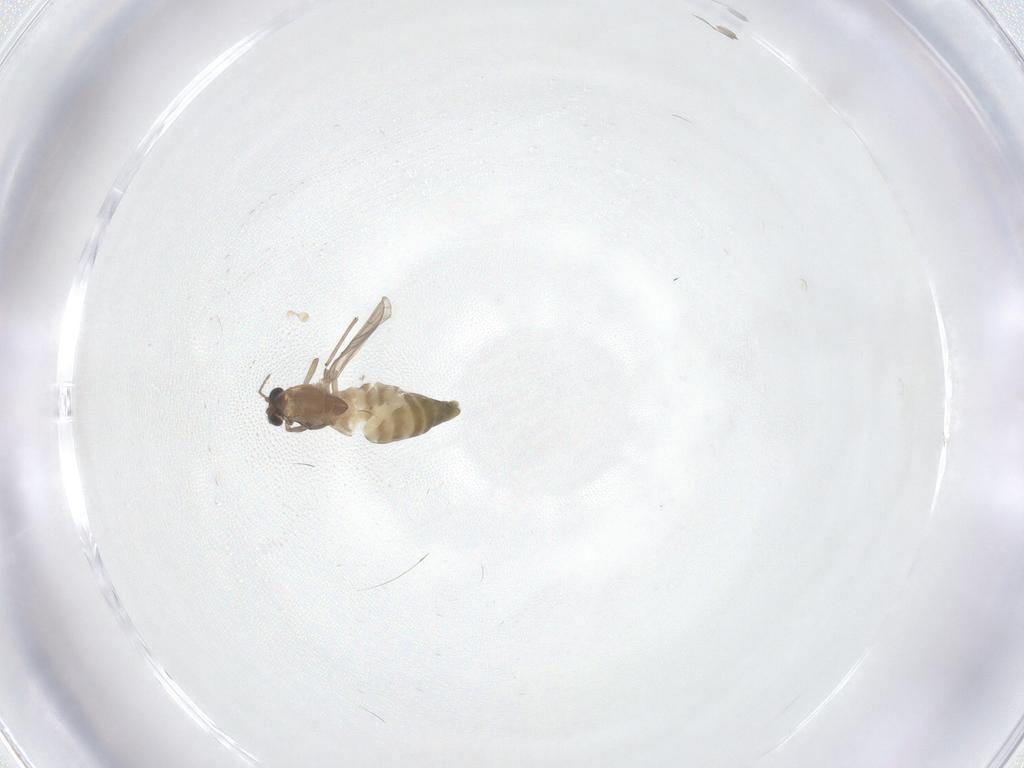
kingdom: Animalia
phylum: Arthropoda
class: Insecta
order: Diptera
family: Chironomidae
